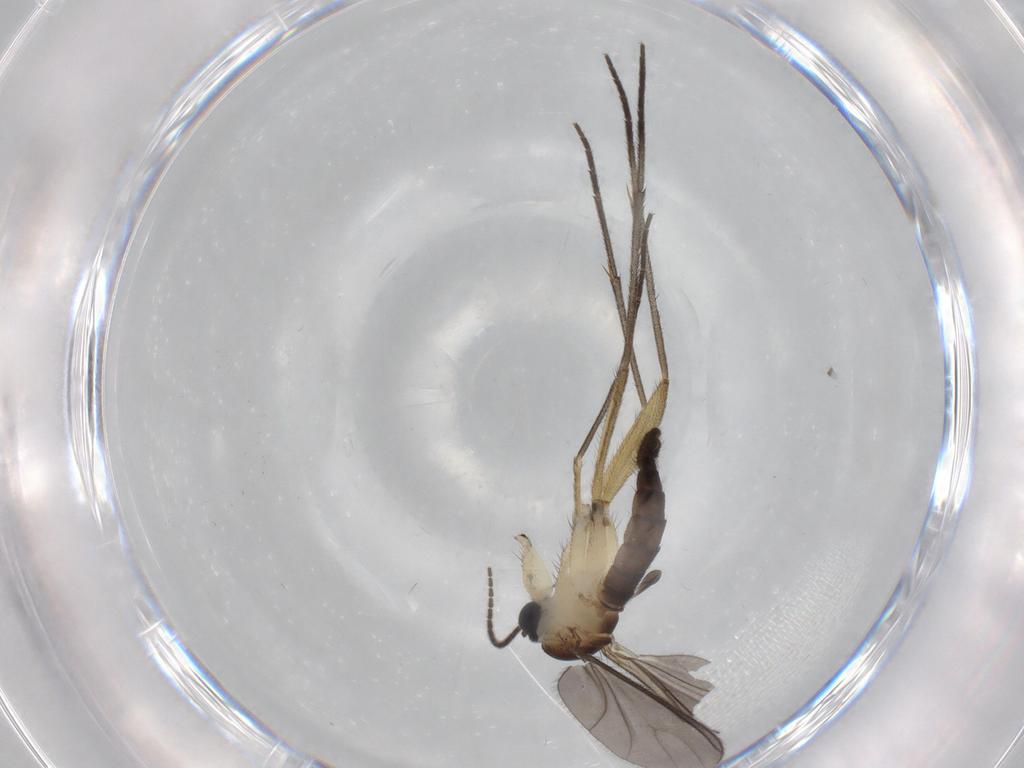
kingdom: Animalia
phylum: Arthropoda
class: Insecta
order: Diptera
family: Sciaridae
